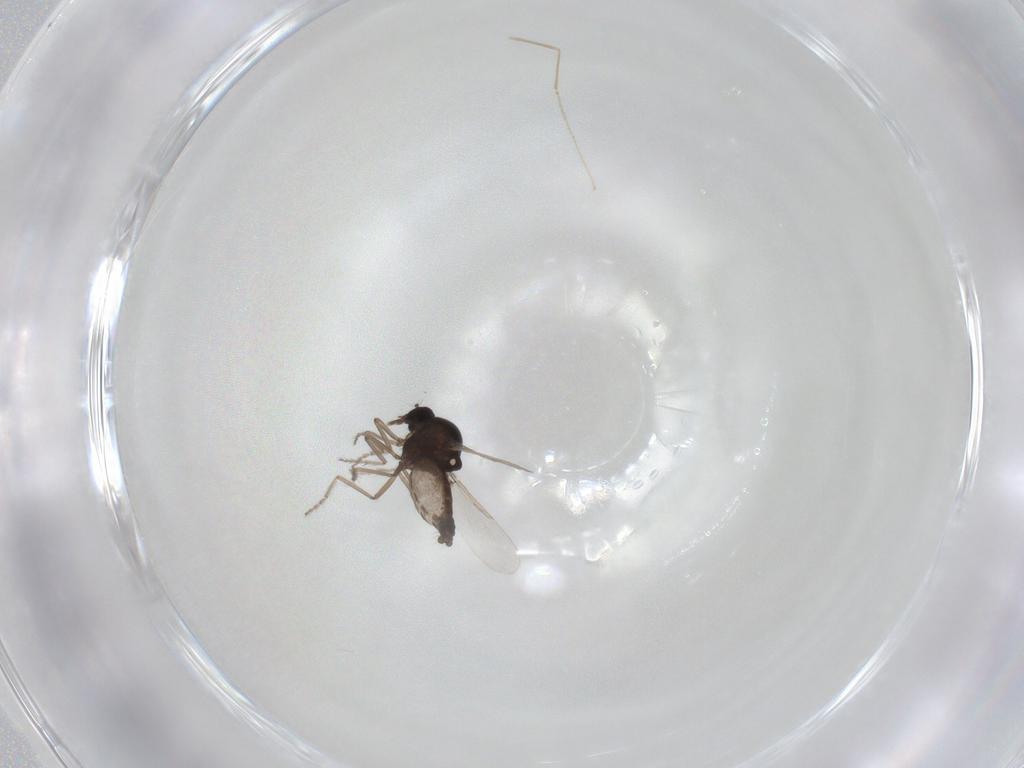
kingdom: Animalia
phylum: Arthropoda
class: Insecta
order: Diptera
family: Ceratopogonidae
